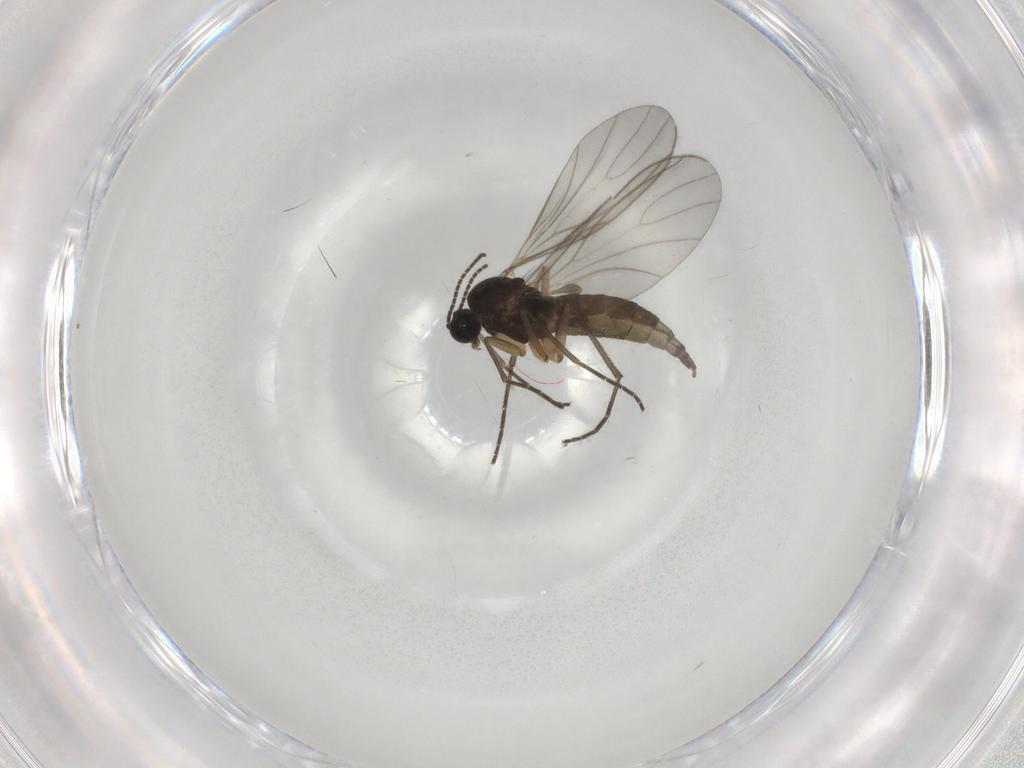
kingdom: Animalia
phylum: Arthropoda
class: Insecta
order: Diptera
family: Sciaridae
